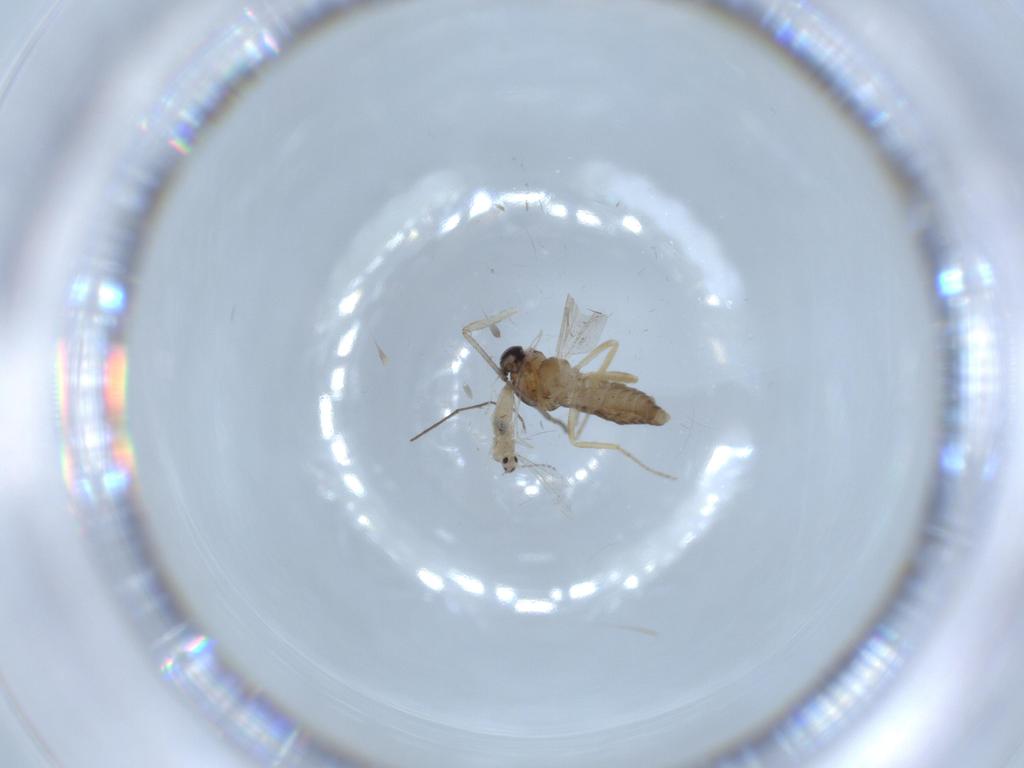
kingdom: Animalia
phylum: Arthropoda
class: Insecta
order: Diptera
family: Ceratopogonidae
